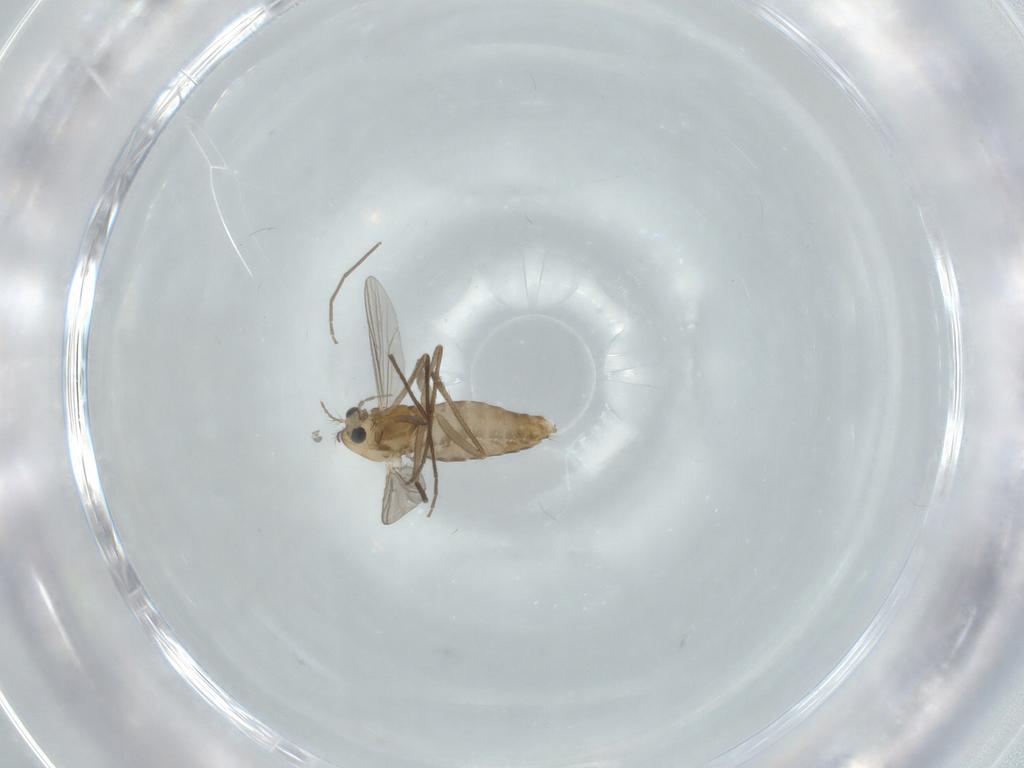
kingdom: Animalia
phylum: Arthropoda
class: Insecta
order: Diptera
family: Chironomidae
